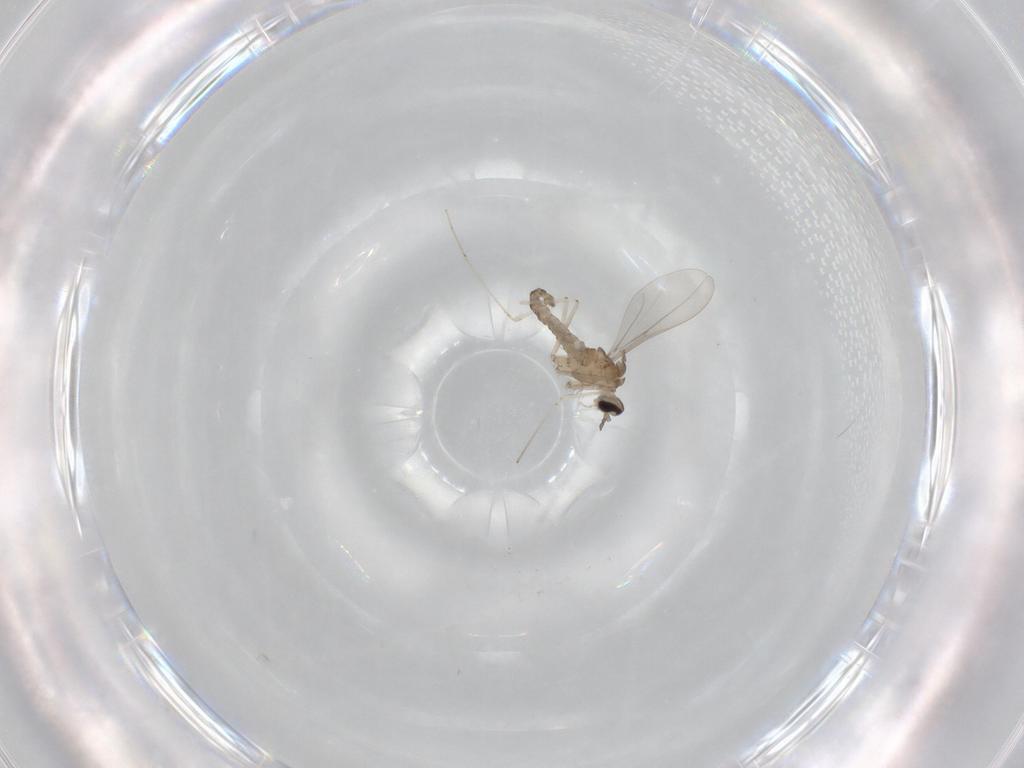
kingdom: Animalia
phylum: Arthropoda
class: Insecta
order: Diptera
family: Cecidomyiidae
